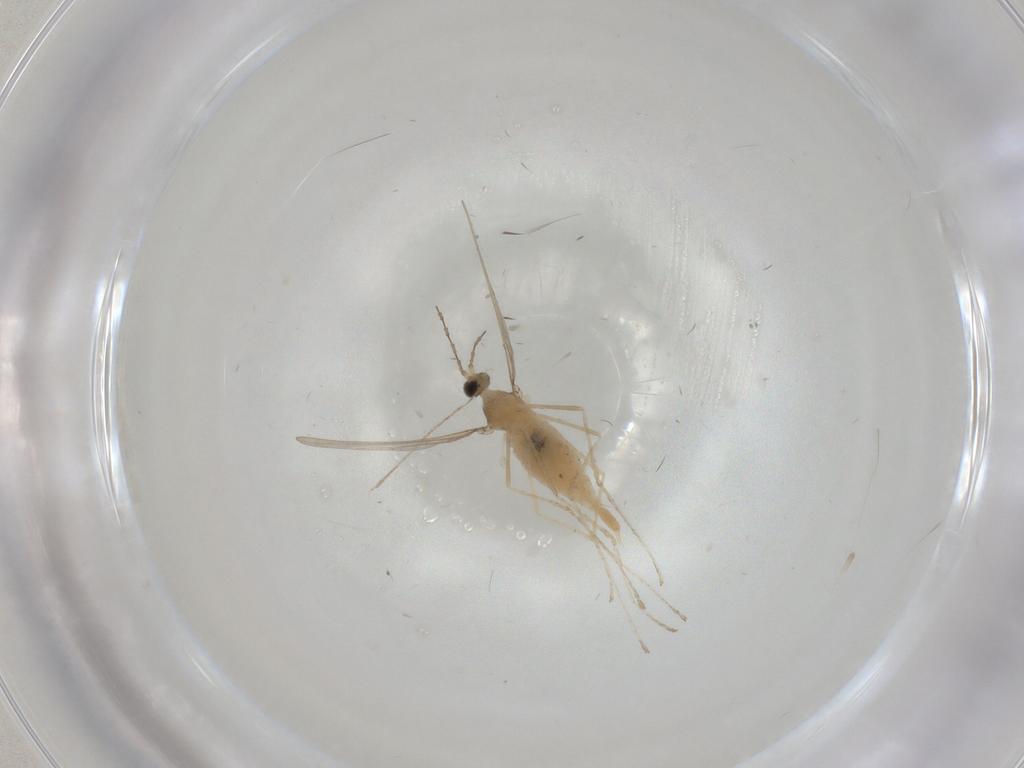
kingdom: Animalia
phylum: Arthropoda
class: Insecta
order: Diptera
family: Cecidomyiidae
